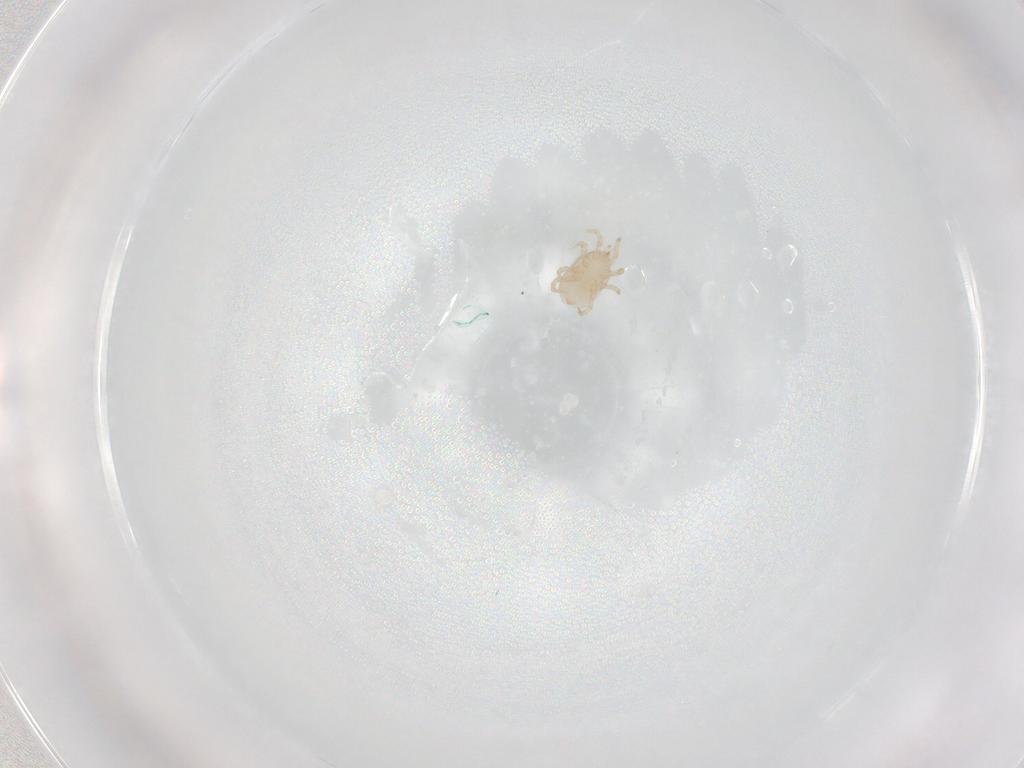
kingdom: Animalia
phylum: Arthropoda
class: Arachnida
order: Mesostigmata
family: Melicharidae
